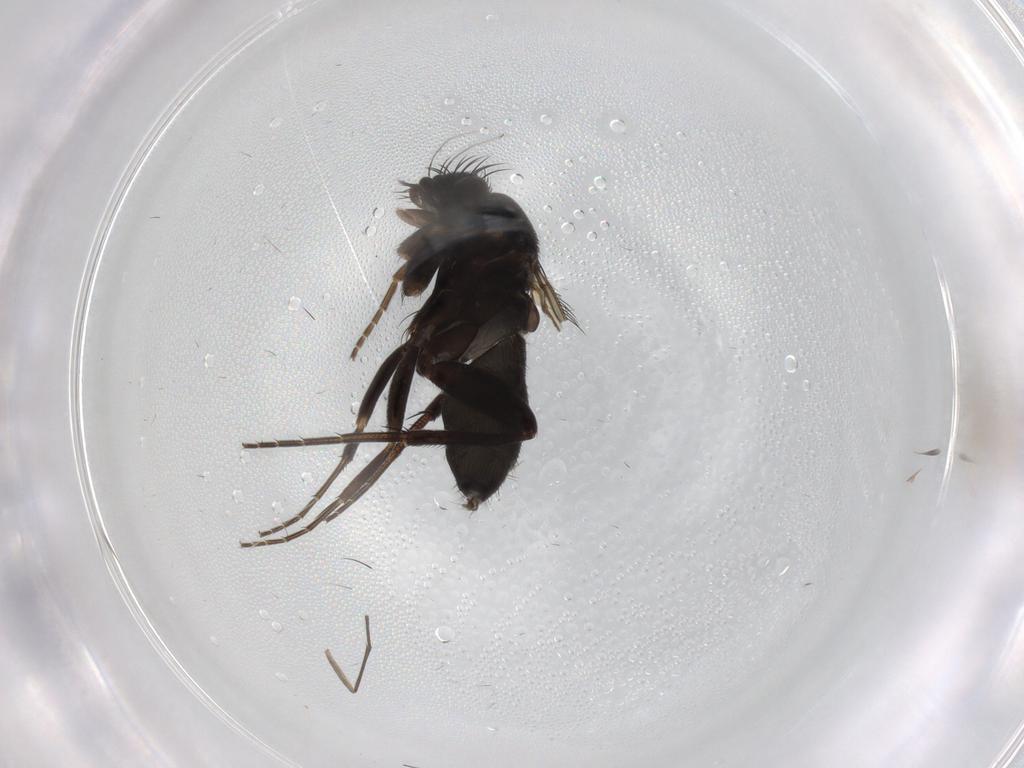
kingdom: Animalia
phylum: Arthropoda
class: Insecta
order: Diptera
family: Phoridae
